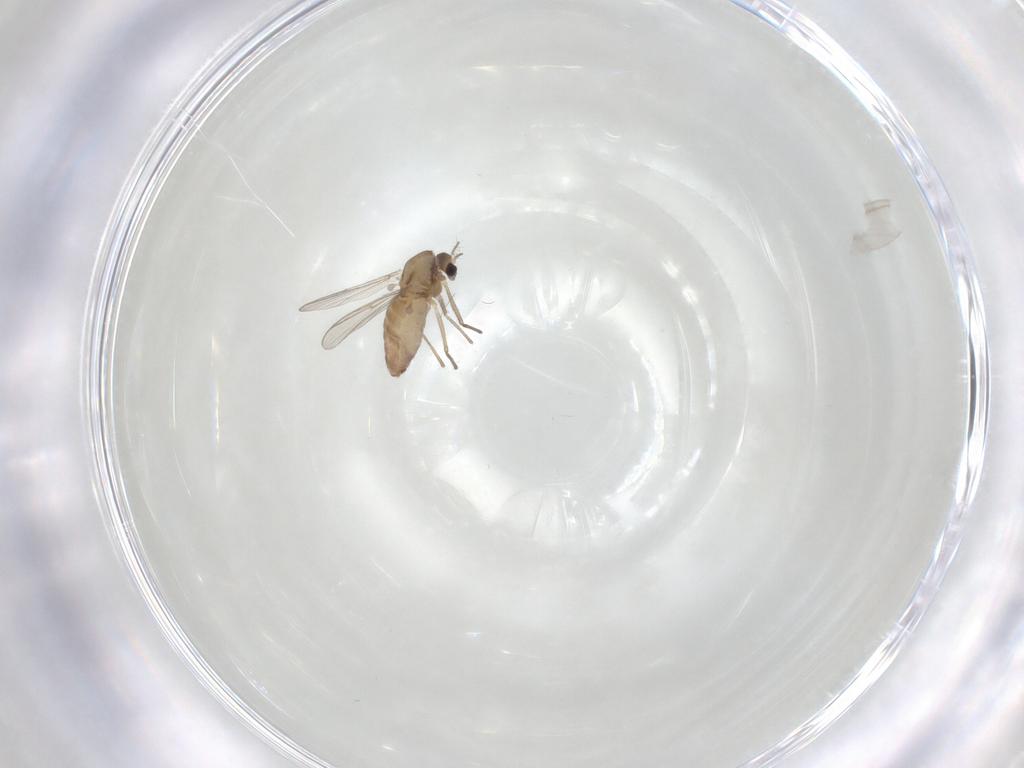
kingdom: Animalia
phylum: Arthropoda
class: Insecta
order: Diptera
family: Chironomidae
